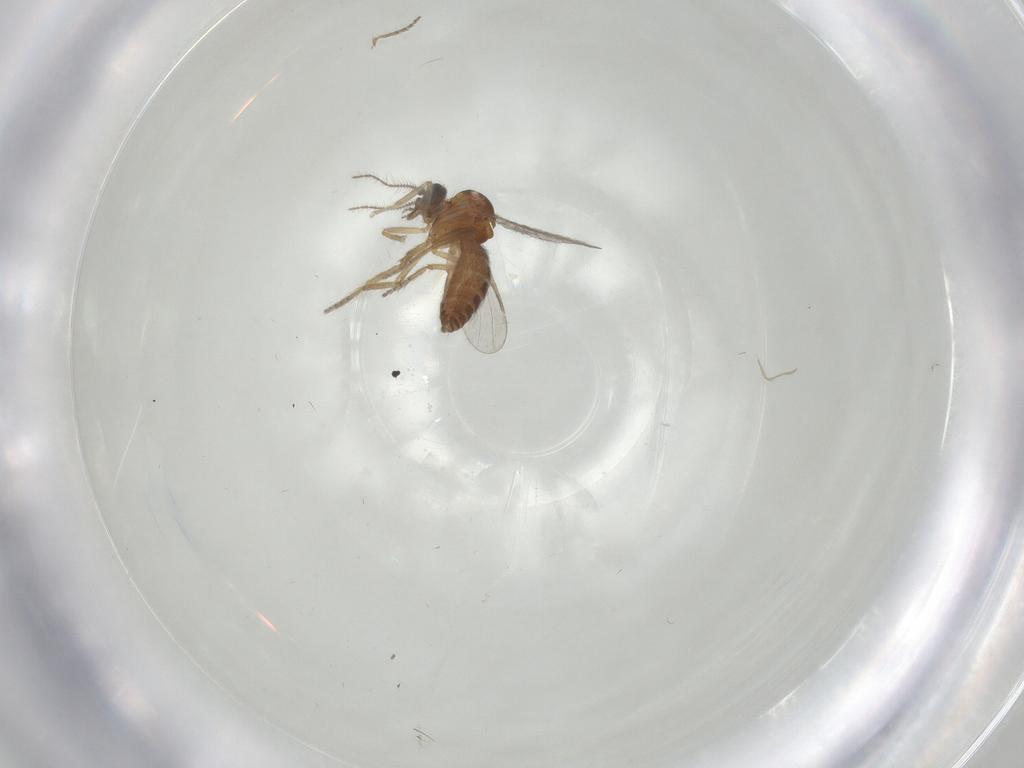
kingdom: Animalia
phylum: Arthropoda
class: Insecta
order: Diptera
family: Ceratopogonidae
